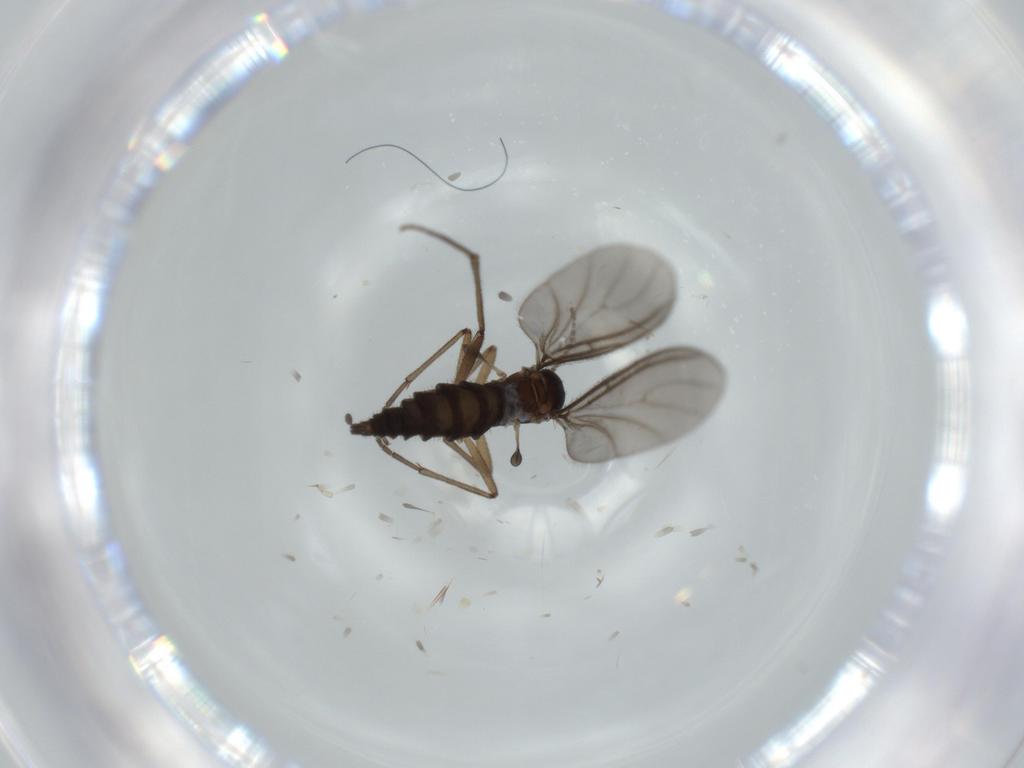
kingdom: Animalia
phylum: Arthropoda
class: Insecta
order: Diptera
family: Sciaridae
